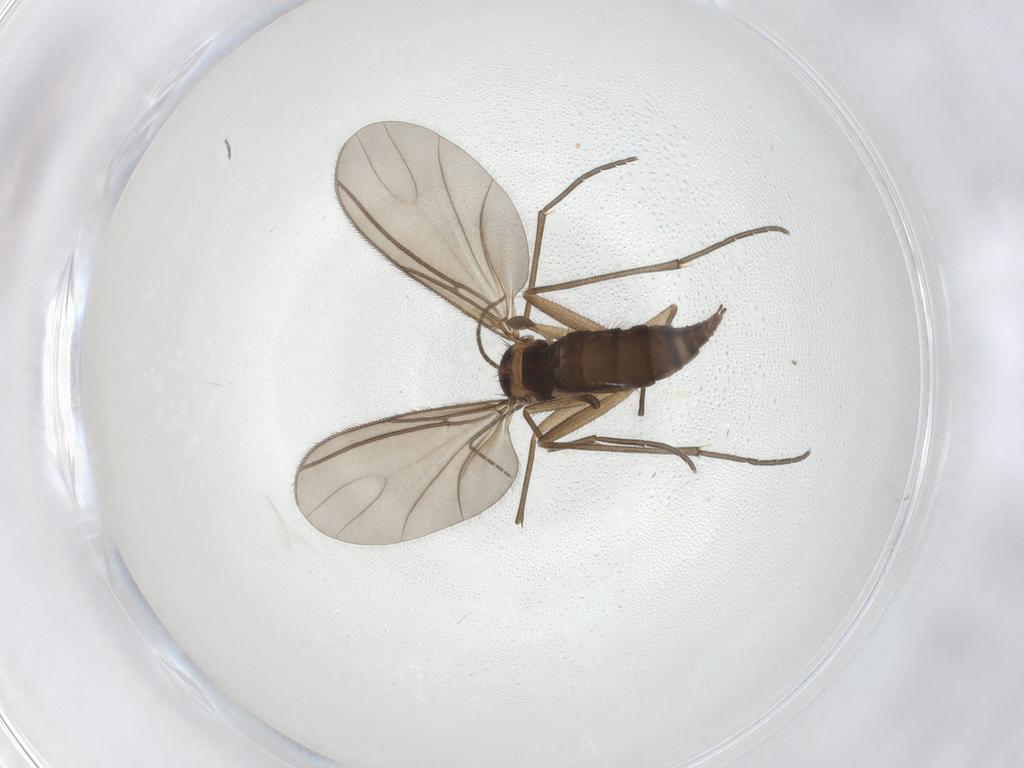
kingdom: Animalia
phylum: Arthropoda
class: Insecta
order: Diptera
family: Sciaridae
